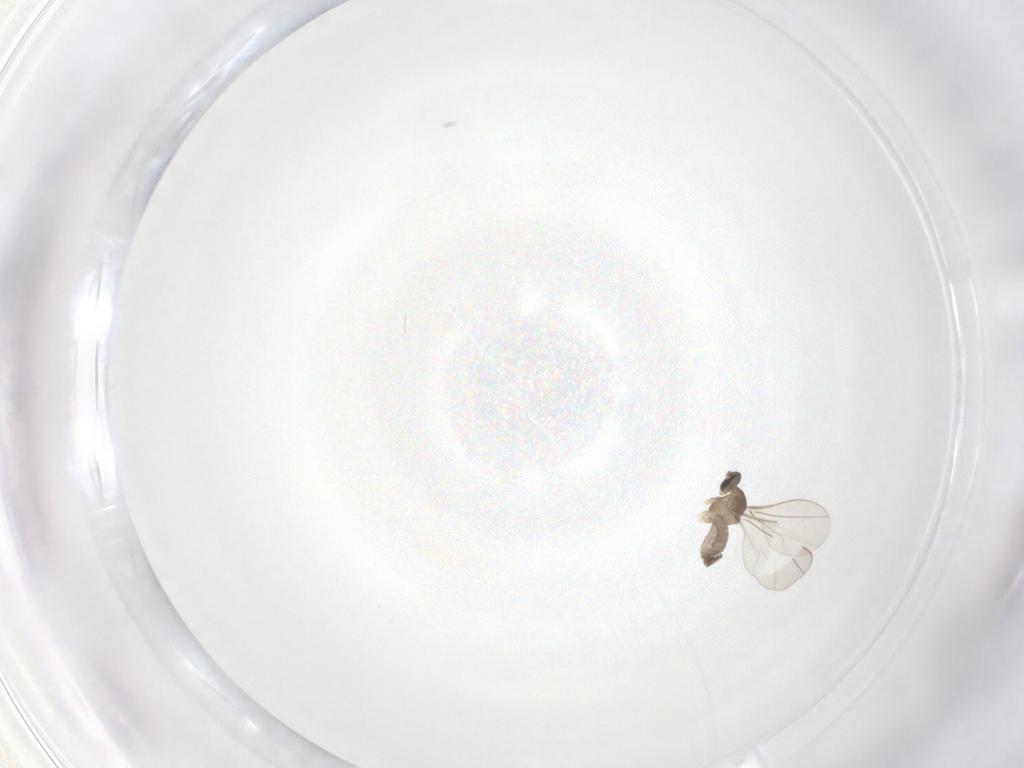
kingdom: Animalia
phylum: Arthropoda
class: Insecta
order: Diptera
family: Cecidomyiidae
